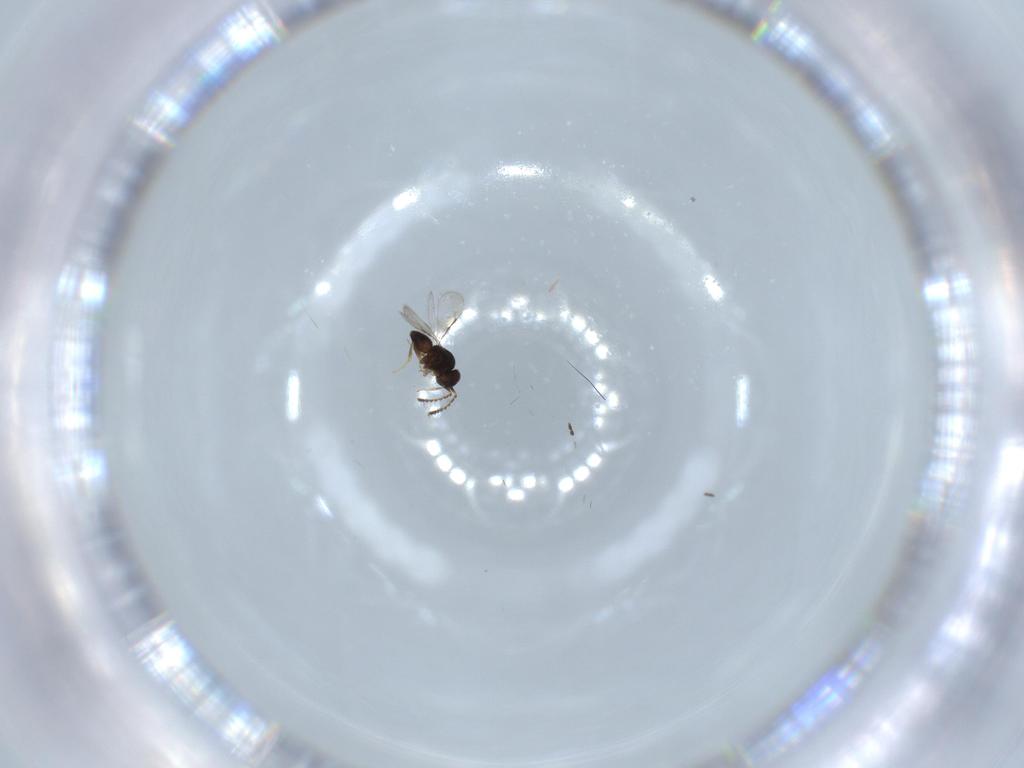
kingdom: Animalia
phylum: Arthropoda
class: Insecta
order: Hymenoptera
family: Ceraphronidae
